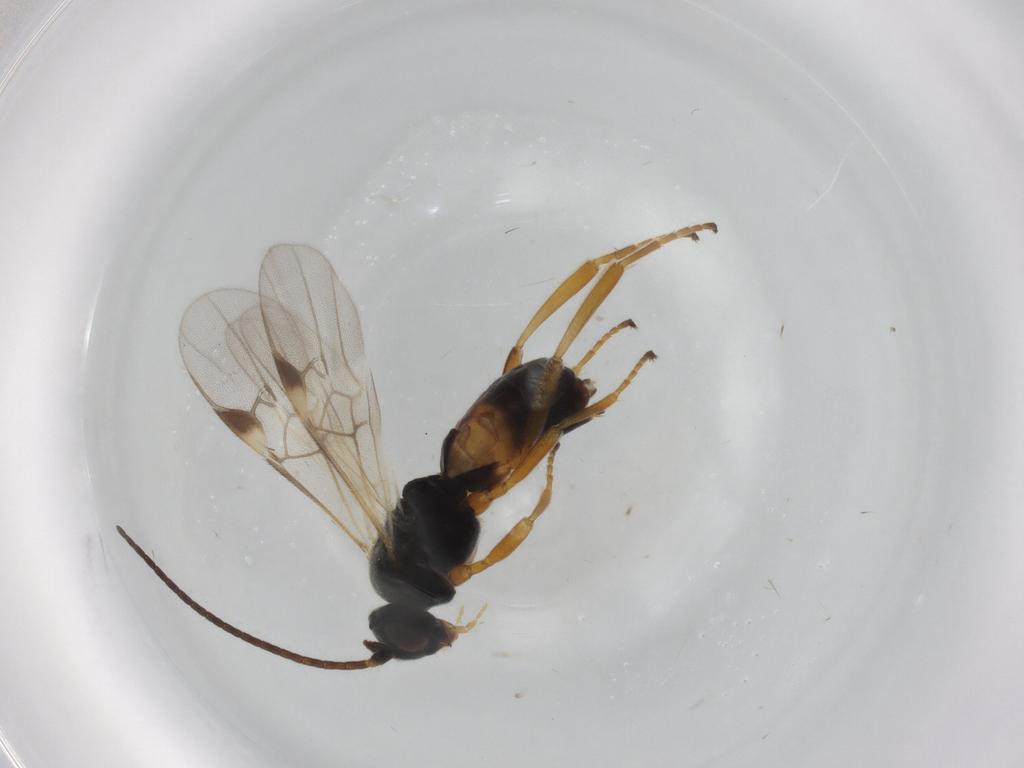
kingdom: Animalia
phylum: Arthropoda
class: Insecta
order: Hymenoptera
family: Braconidae
